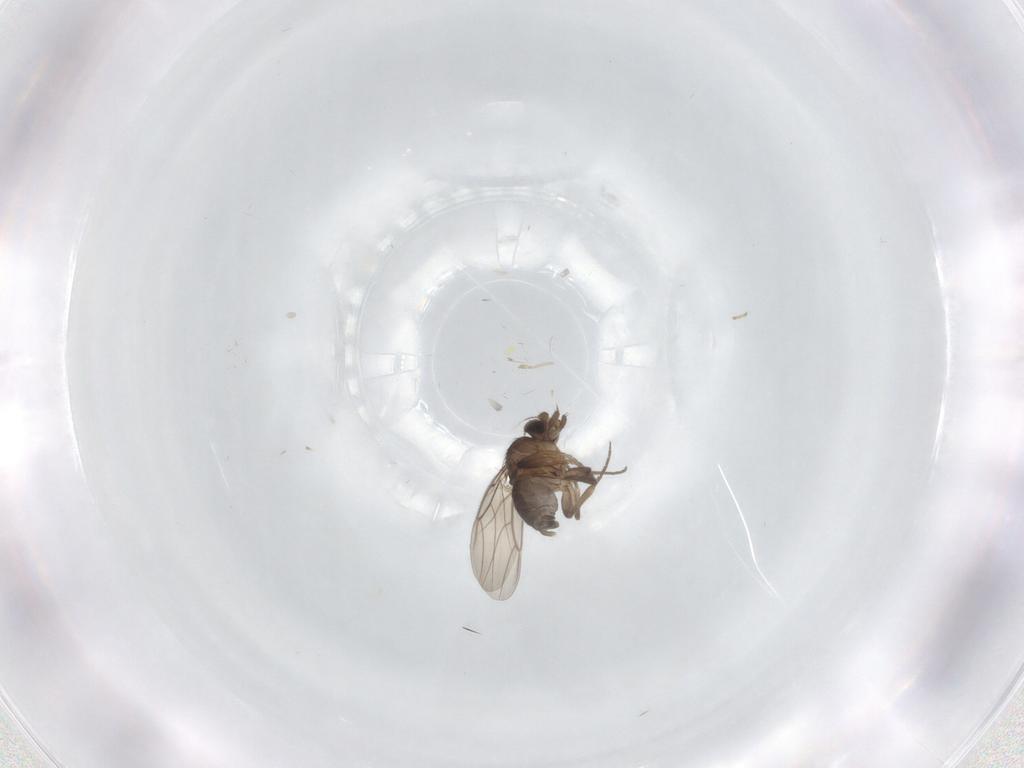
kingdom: Animalia
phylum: Arthropoda
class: Insecta
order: Diptera
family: Phoridae
